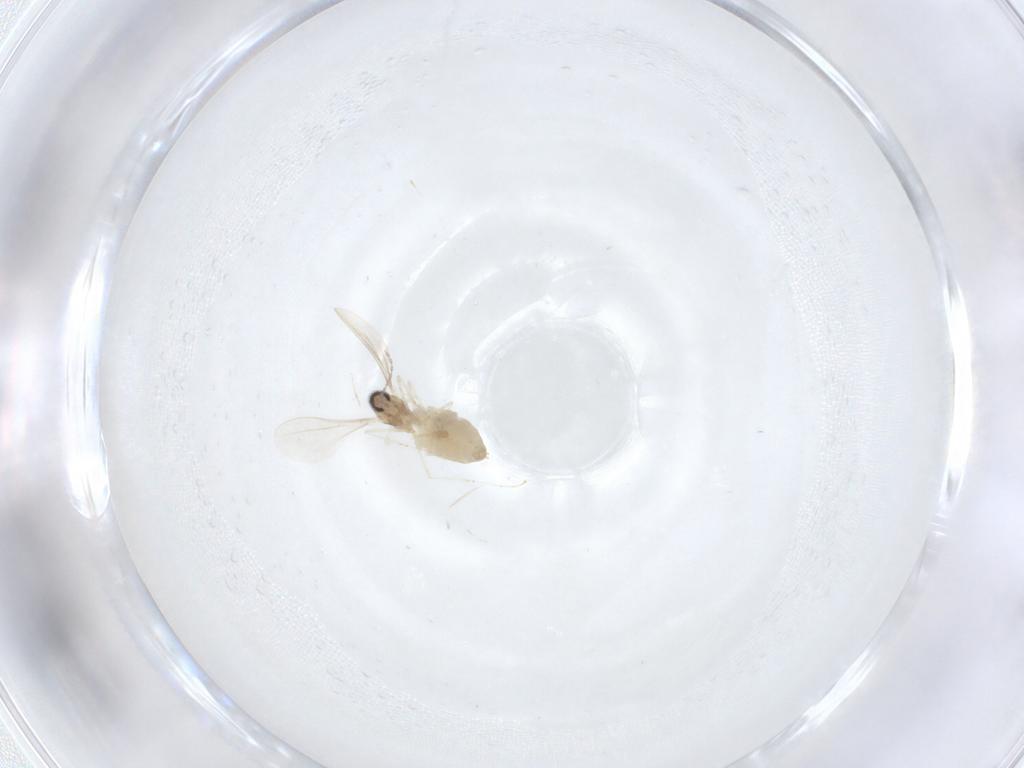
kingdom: Animalia
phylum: Arthropoda
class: Insecta
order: Diptera
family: Cecidomyiidae
